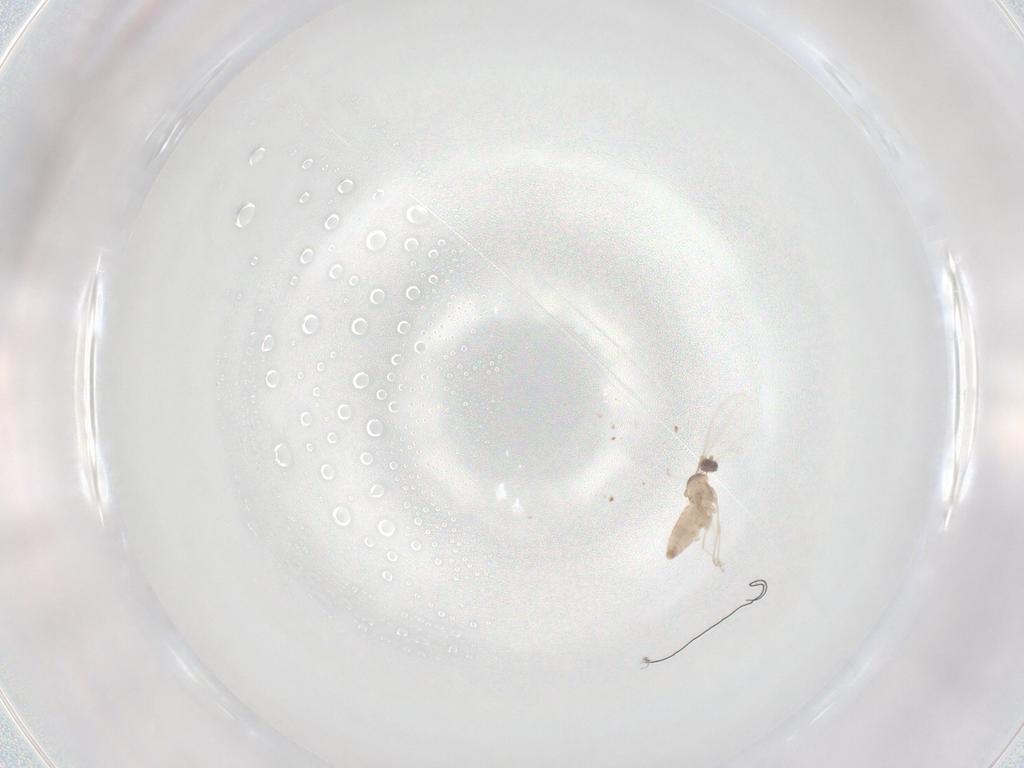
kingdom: Animalia
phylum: Arthropoda
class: Insecta
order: Diptera
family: Cecidomyiidae
